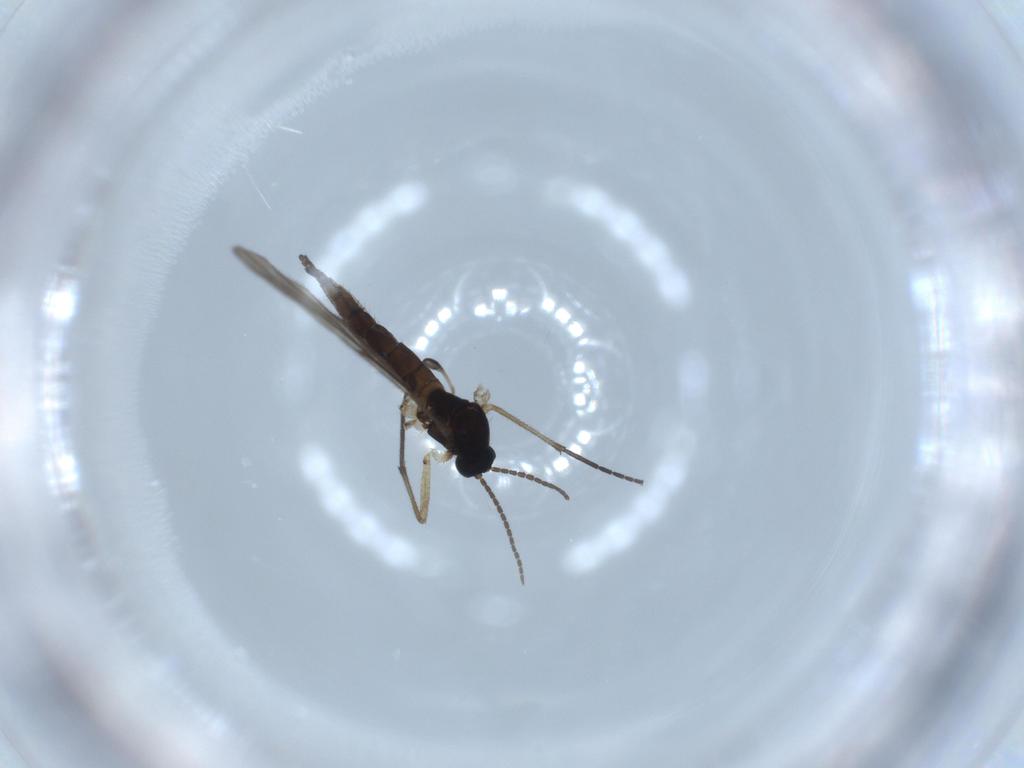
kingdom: Animalia
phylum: Arthropoda
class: Insecta
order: Diptera
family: Sciaridae
